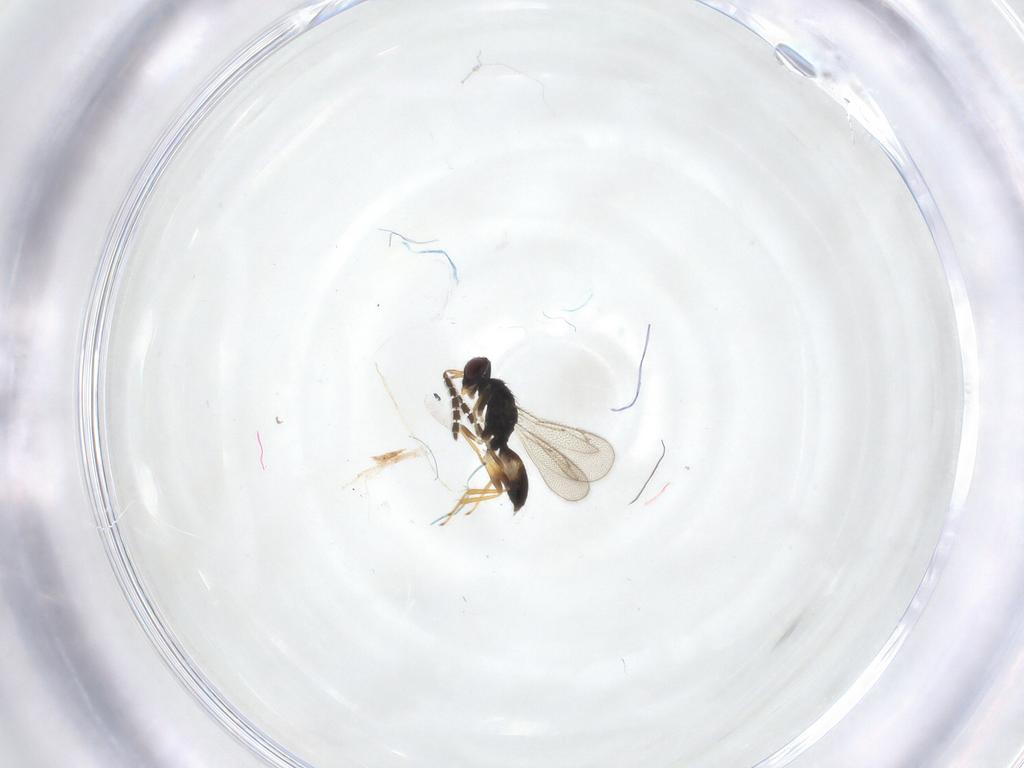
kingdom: Animalia
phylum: Arthropoda
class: Insecta
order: Hymenoptera
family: Eulophidae
